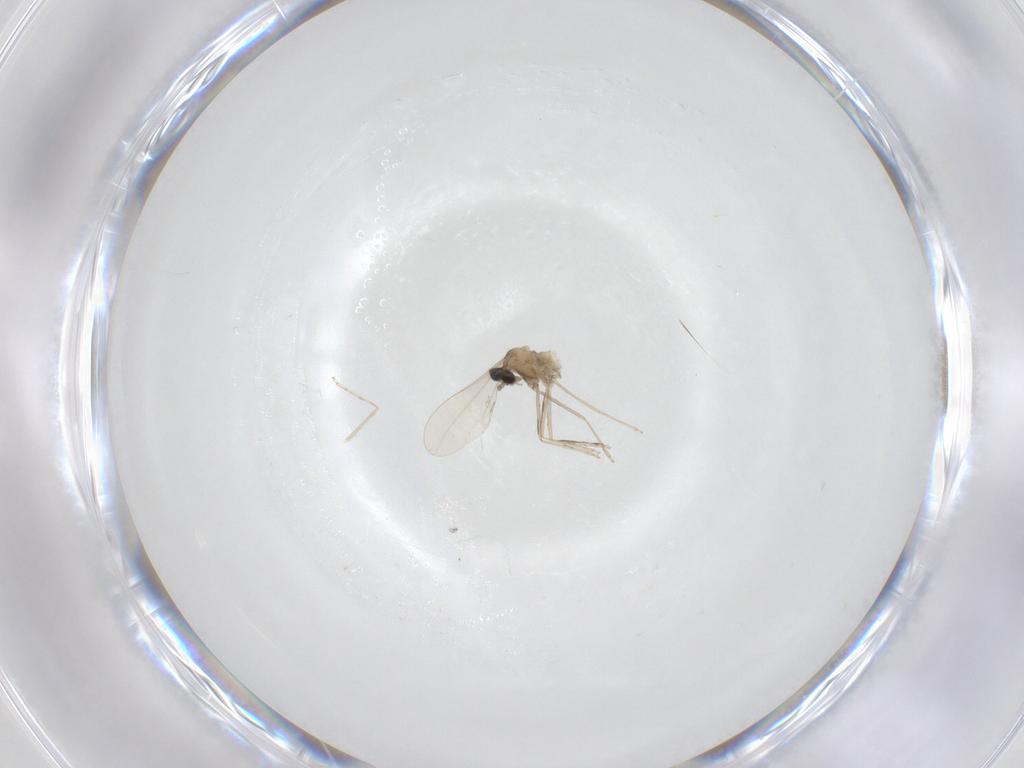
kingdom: Animalia
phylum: Arthropoda
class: Insecta
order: Diptera
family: Cecidomyiidae
